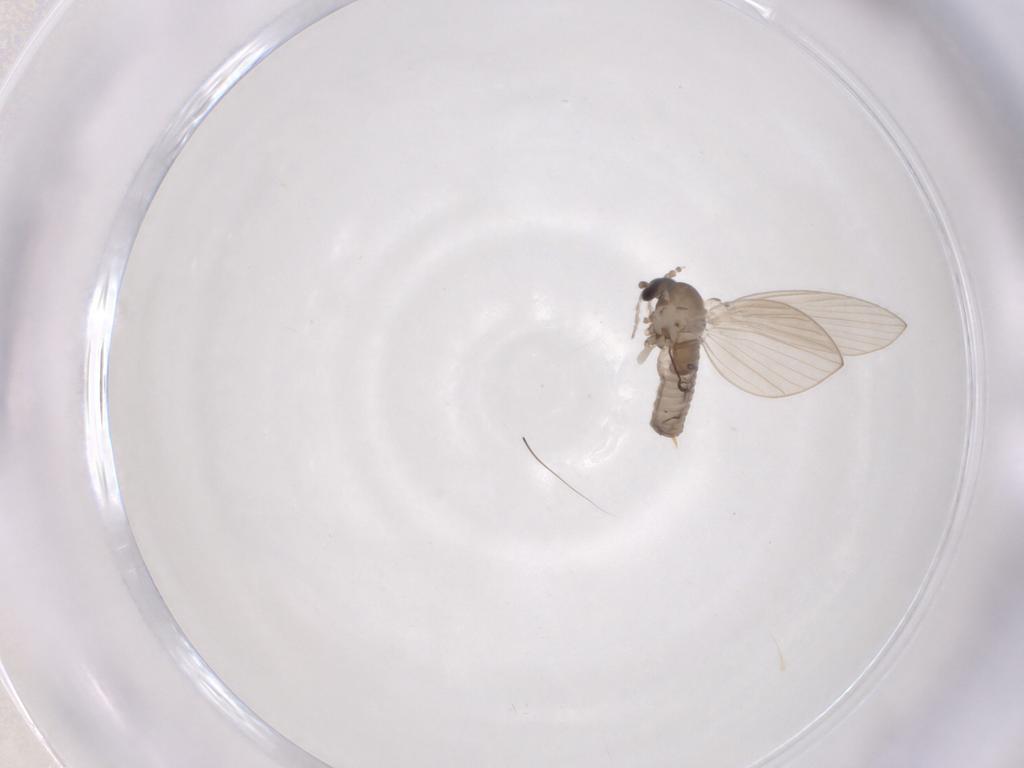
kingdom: Animalia
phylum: Arthropoda
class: Insecta
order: Diptera
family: Psychodidae
